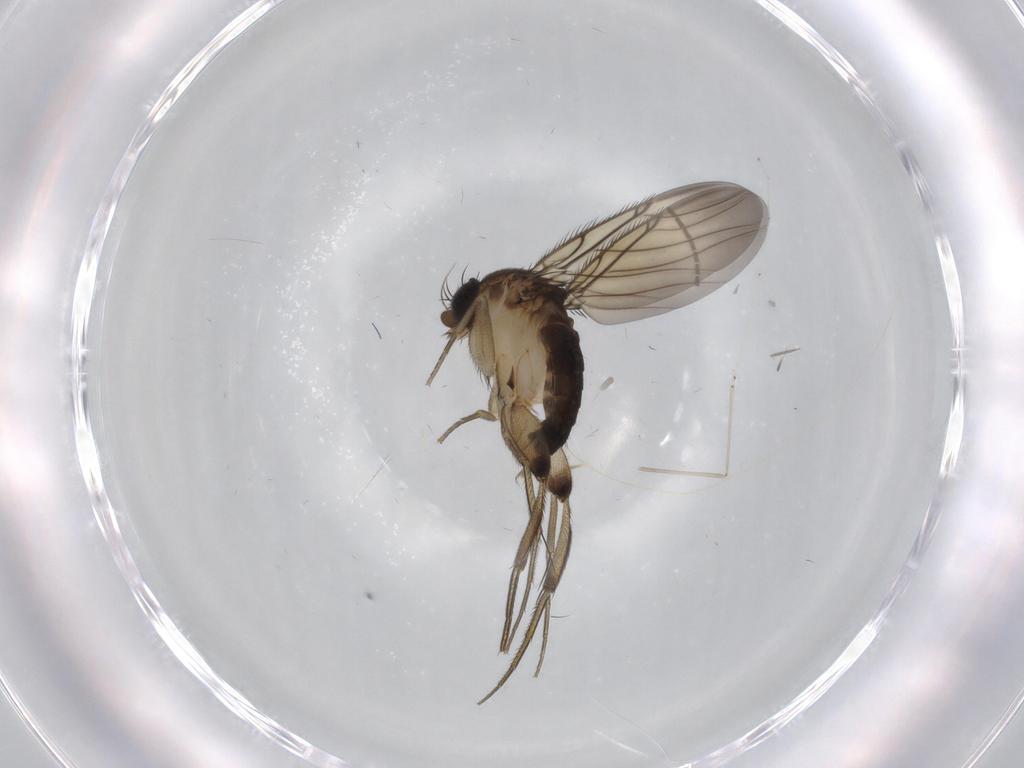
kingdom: Animalia
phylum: Arthropoda
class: Insecta
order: Diptera
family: Cecidomyiidae
